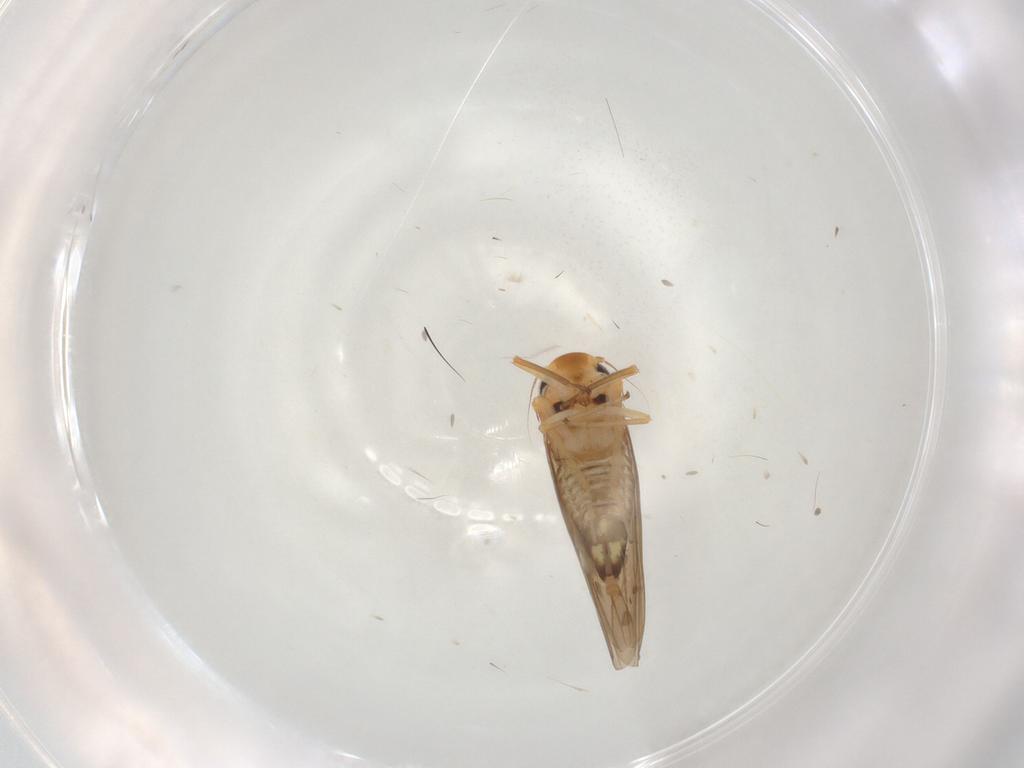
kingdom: Animalia
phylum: Arthropoda
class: Insecta
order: Hemiptera
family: Cicadellidae
